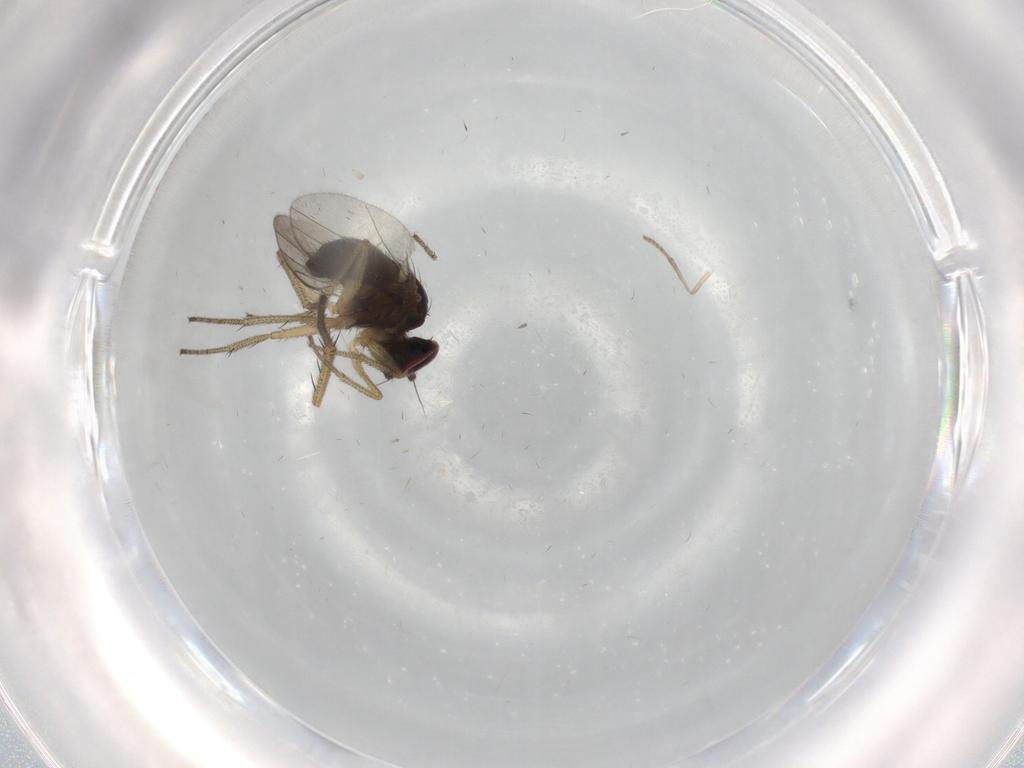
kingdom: Animalia
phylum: Arthropoda
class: Insecta
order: Diptera
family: Dolichopodidae
